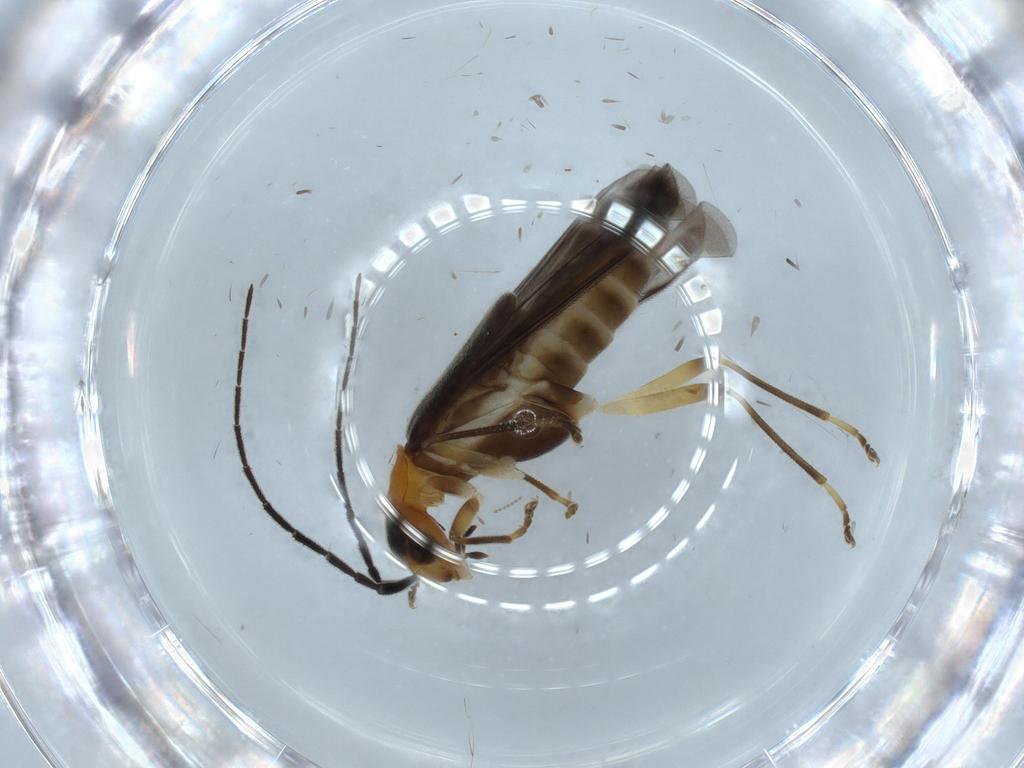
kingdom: Animalia
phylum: Arthropoda
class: Insecta
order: Coleoptera
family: Cantharidae
